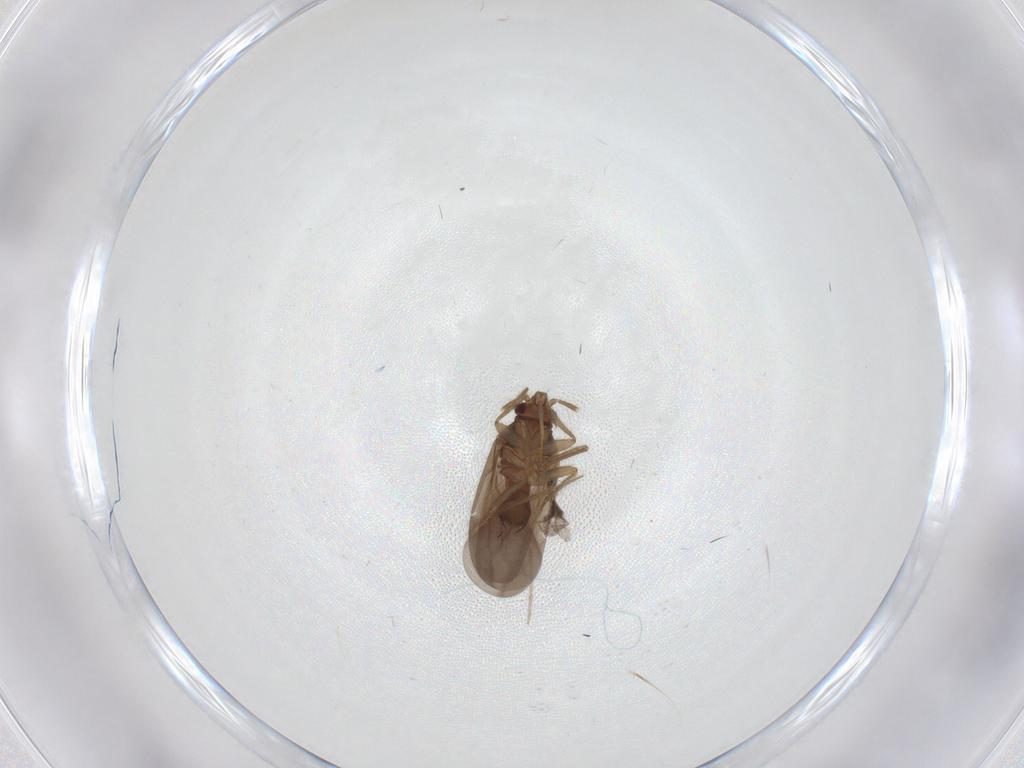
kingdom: Animalia
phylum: Arthropoda
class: Insecta
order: Hemiptera
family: Ceratocombidae
